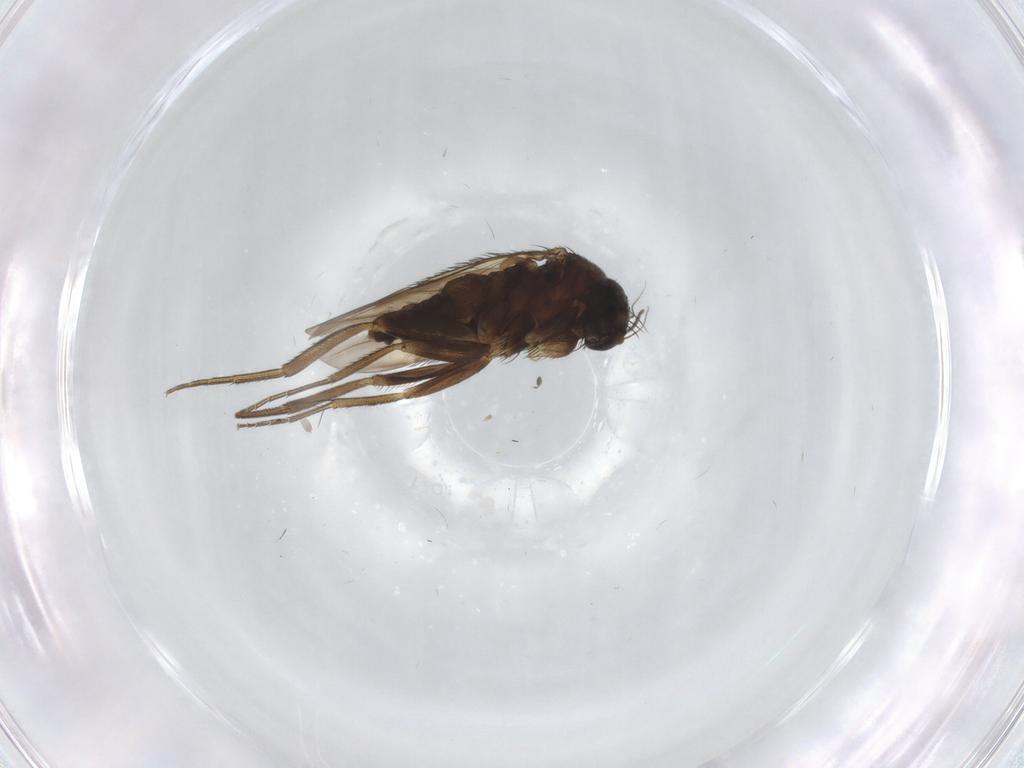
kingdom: Animalia
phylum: Arthropoda
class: Insecta
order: Diptera
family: Phoridae
